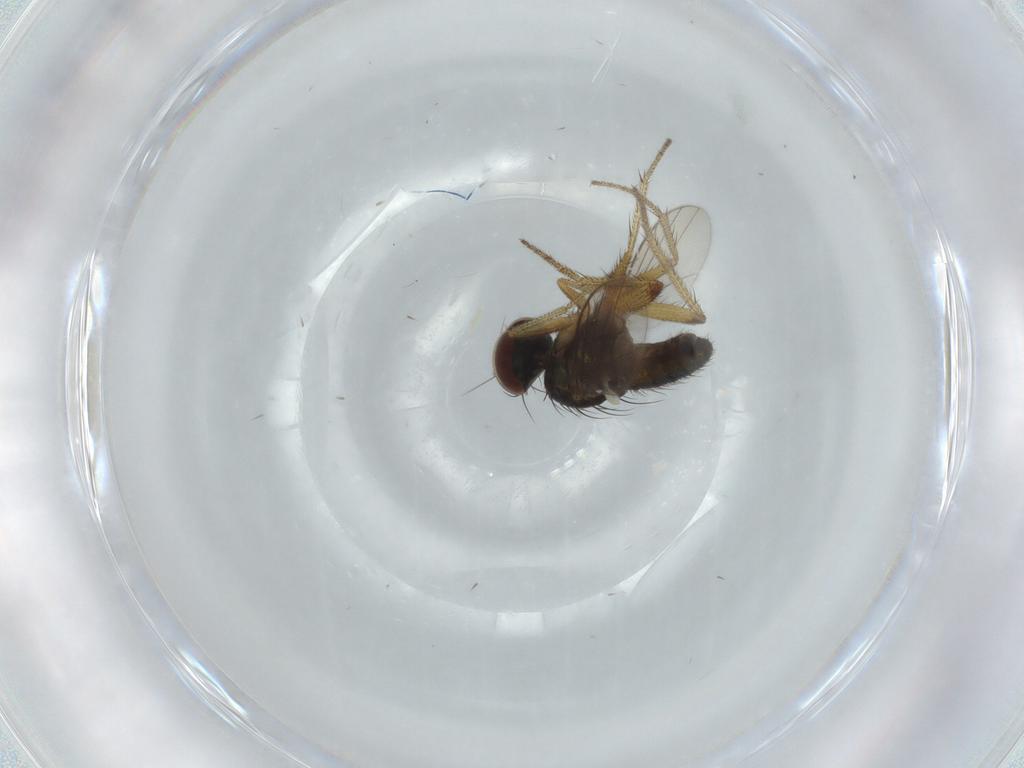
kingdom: Animalia
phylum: Arthropoda
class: Insecta
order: Diptera
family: Dolichopodidae
